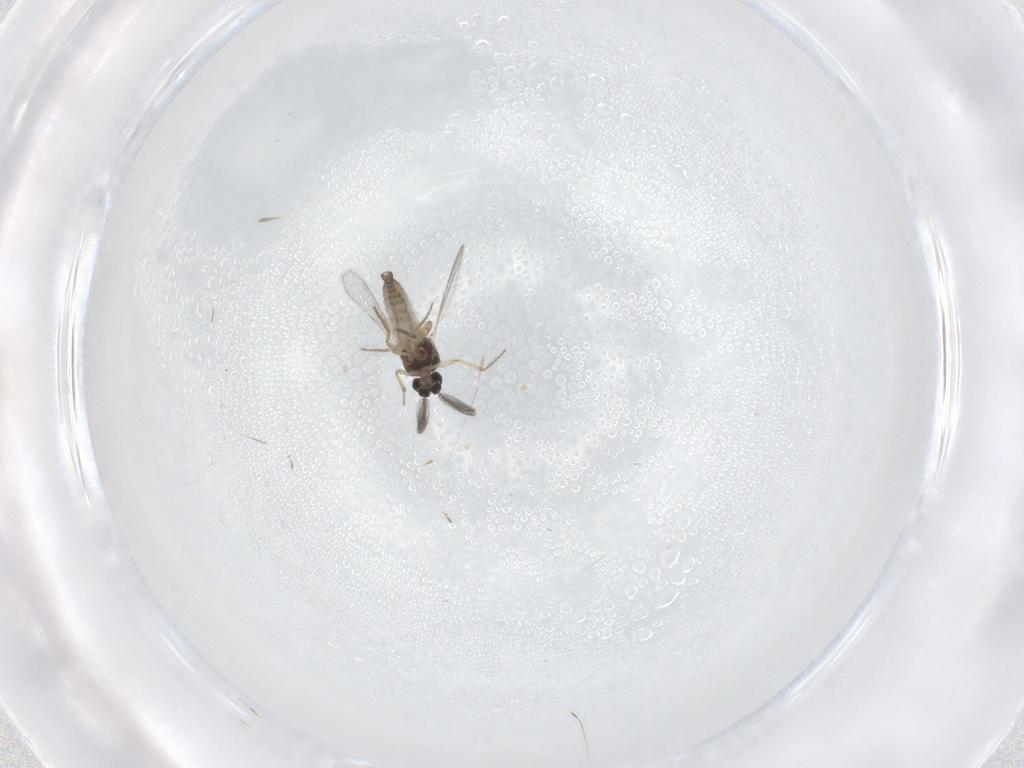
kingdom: Animalia
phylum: Arthropoda
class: Insecta
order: Diptera
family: Ceratopogonidae
